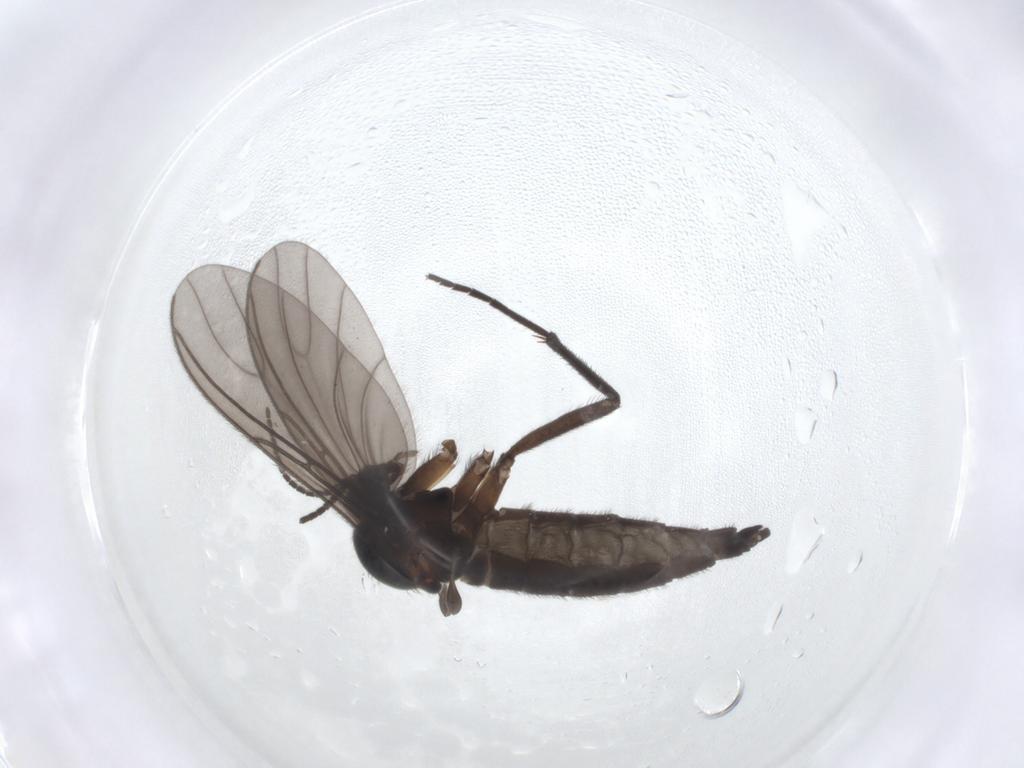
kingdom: Animalia
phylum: Arthropoda
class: Insecta
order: Diptera
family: Sciaridae
